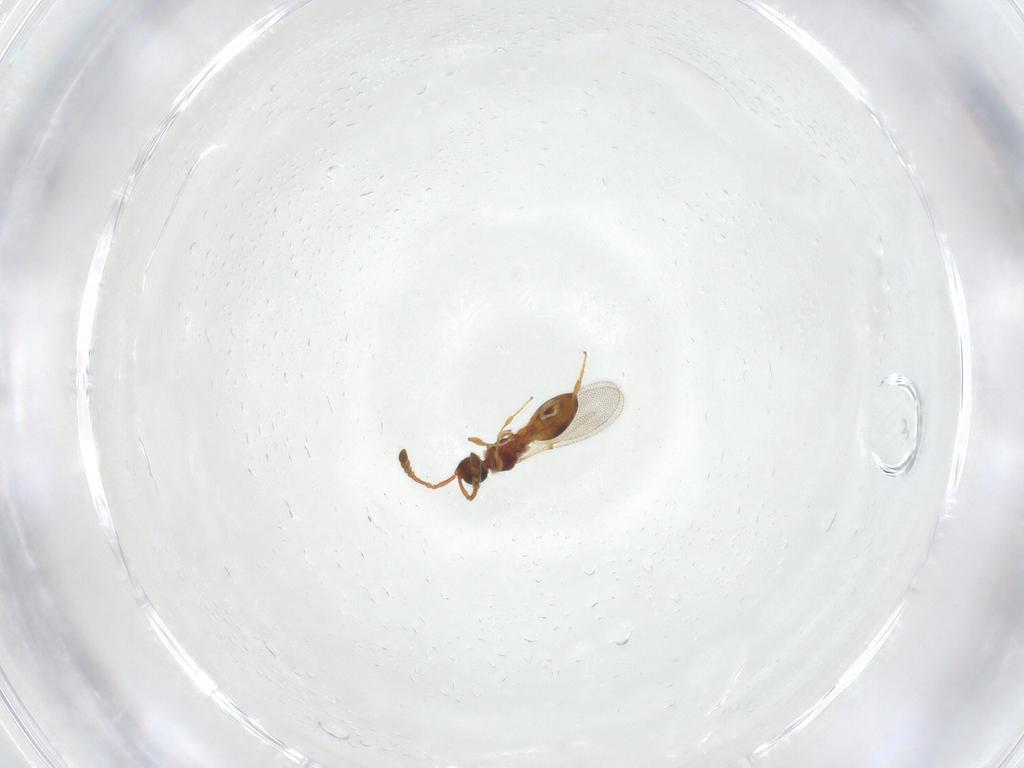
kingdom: Animalia
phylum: Arthropoda
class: Insecta
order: Hymenoptera
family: Diapriidae
